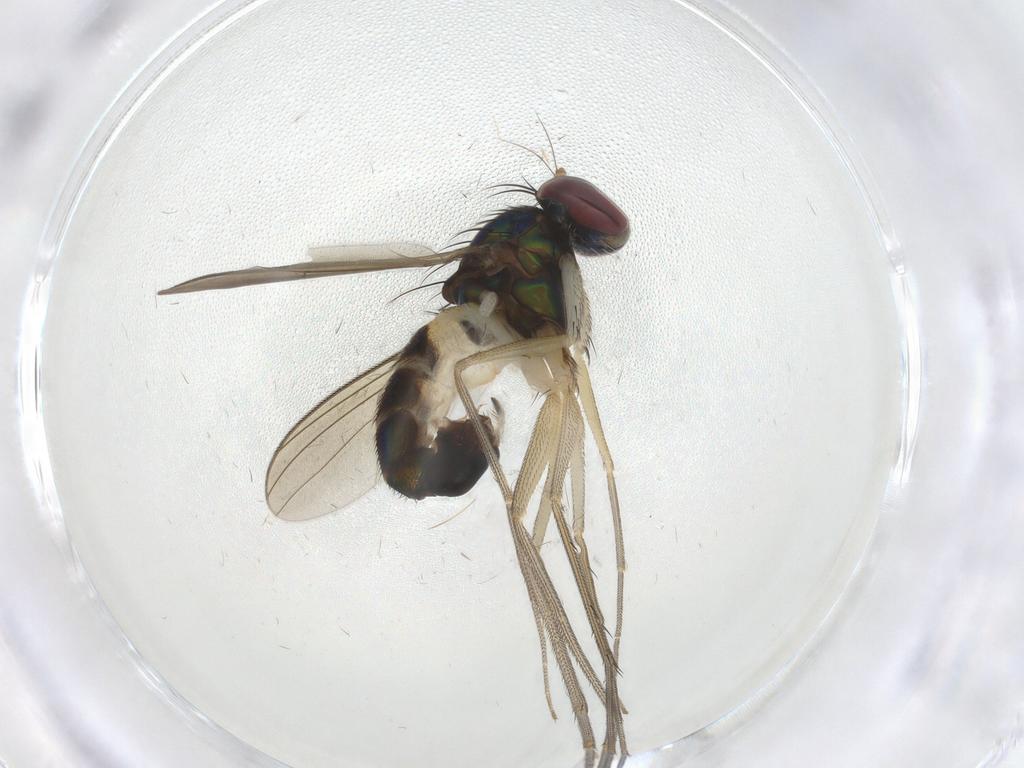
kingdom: Animalia
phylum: Arthropoda
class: Insecta
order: Diptera
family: Dolichopodidae
